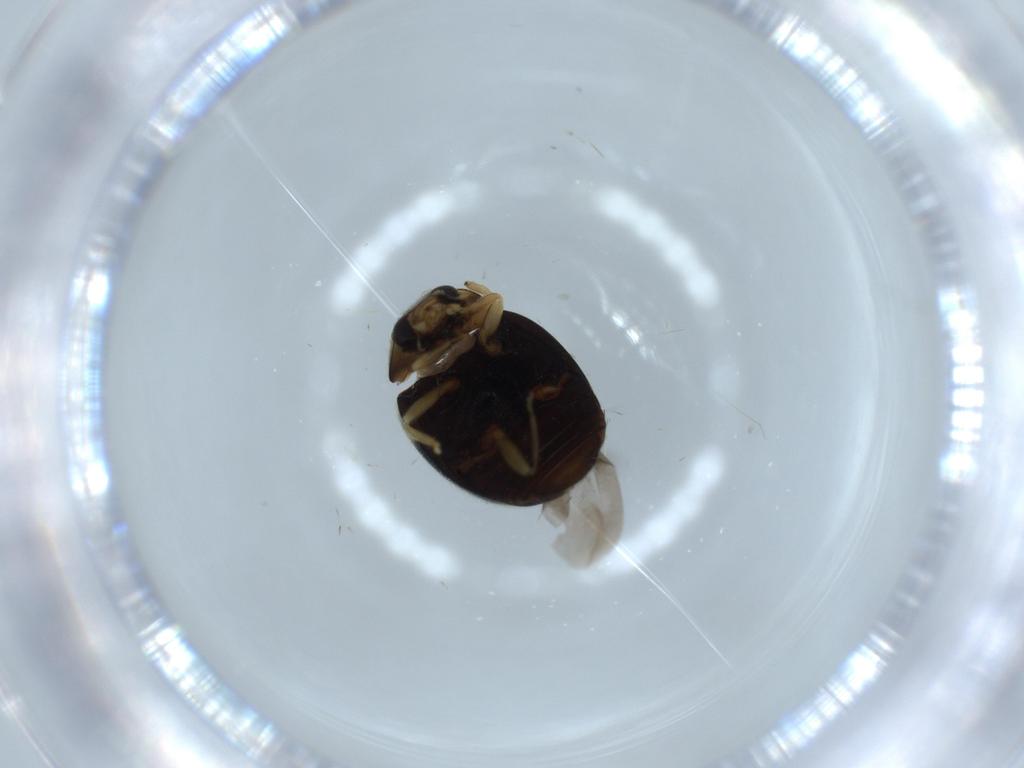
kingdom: Animalia
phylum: Arthropoda
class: Insecta
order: Coleoptera
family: Coccinellidae
